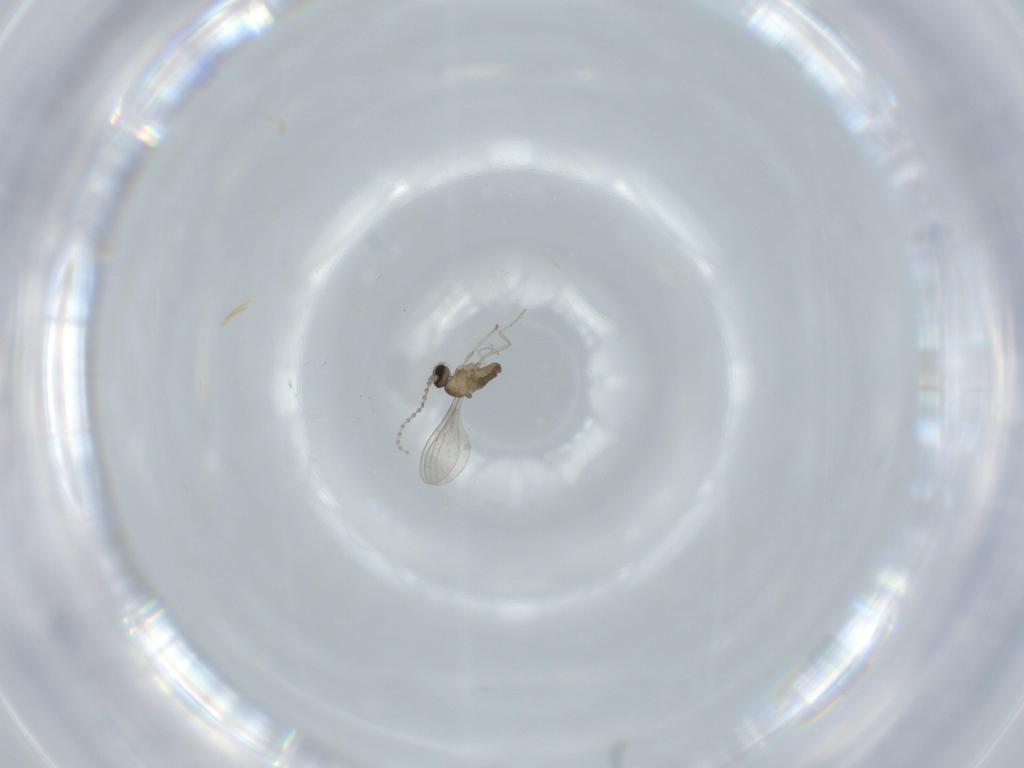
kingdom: Animalia
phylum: Arthropoda
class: Insecta
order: Diptera
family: Cecidomyiidae
